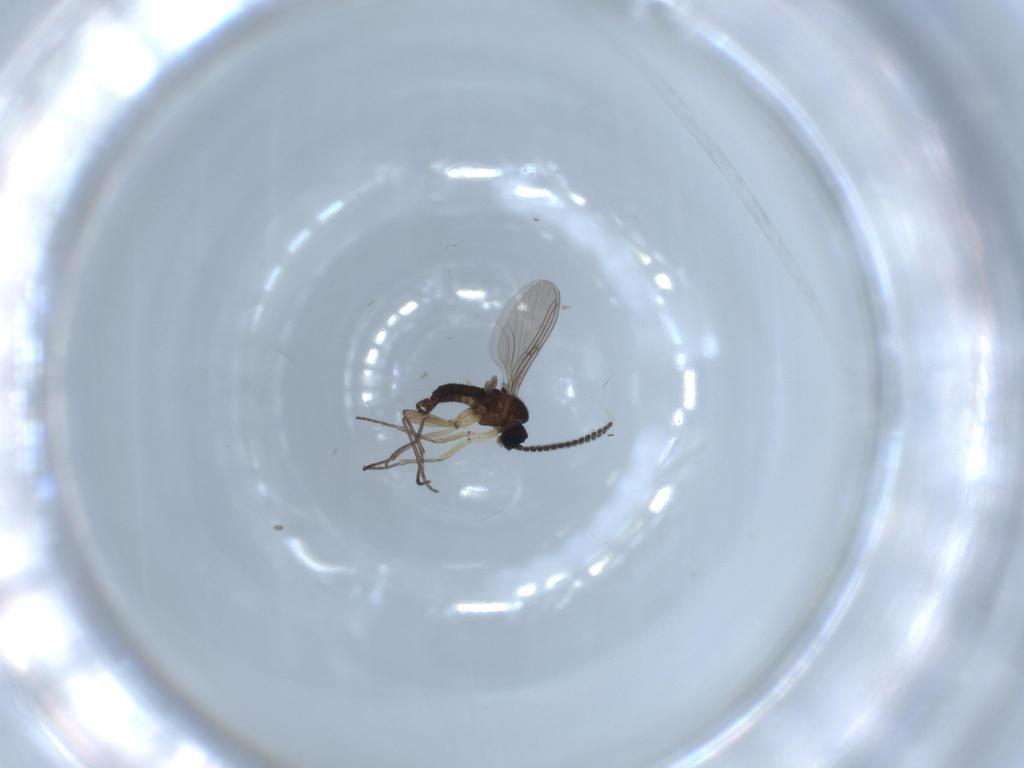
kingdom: Animalia
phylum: Arthropoda
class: Insecta
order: Diptera
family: Sciaridae
